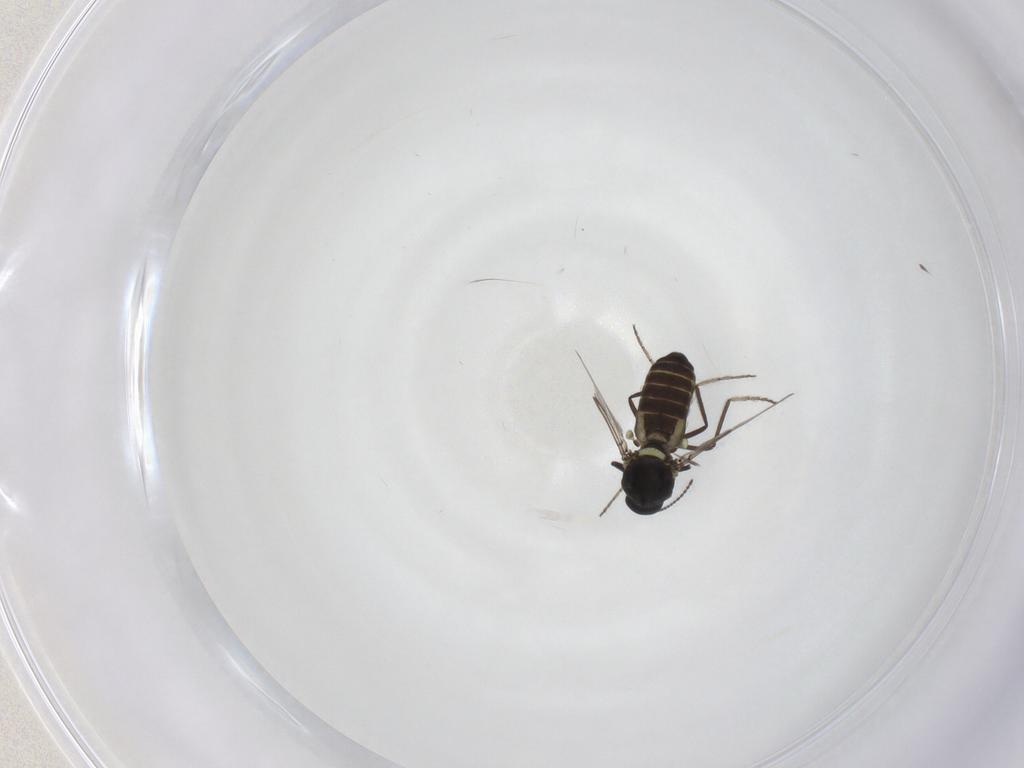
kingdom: Animalia
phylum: Arthropoda
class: Insecta
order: Diptera
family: Ceratopogonidae
